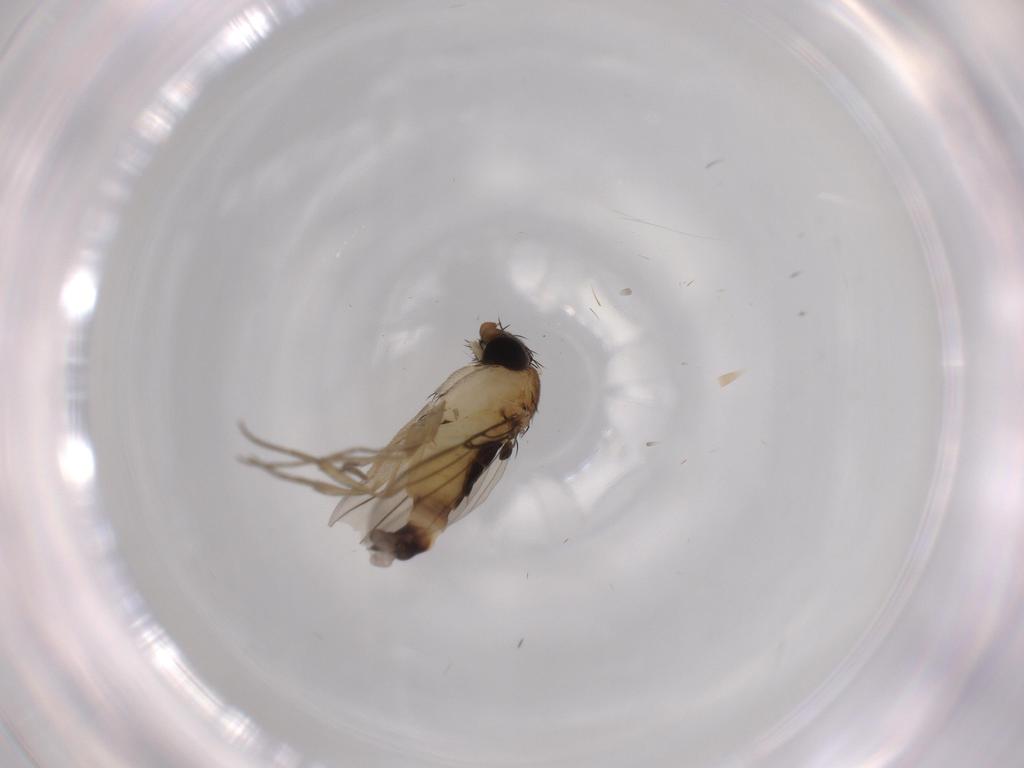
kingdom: Animalia
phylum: Arthropoda
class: Insecta
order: Diptera
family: Phoridae
